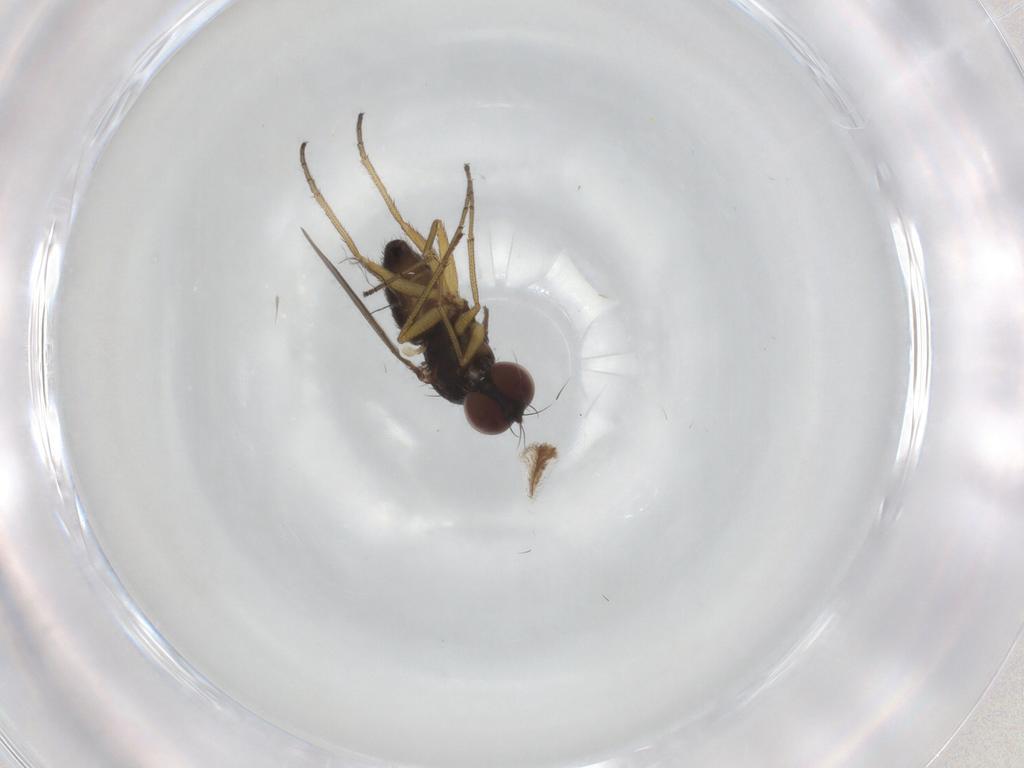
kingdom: Animalia
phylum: Arthropoda
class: Insecta
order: Diptera
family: Dolichopodidae
